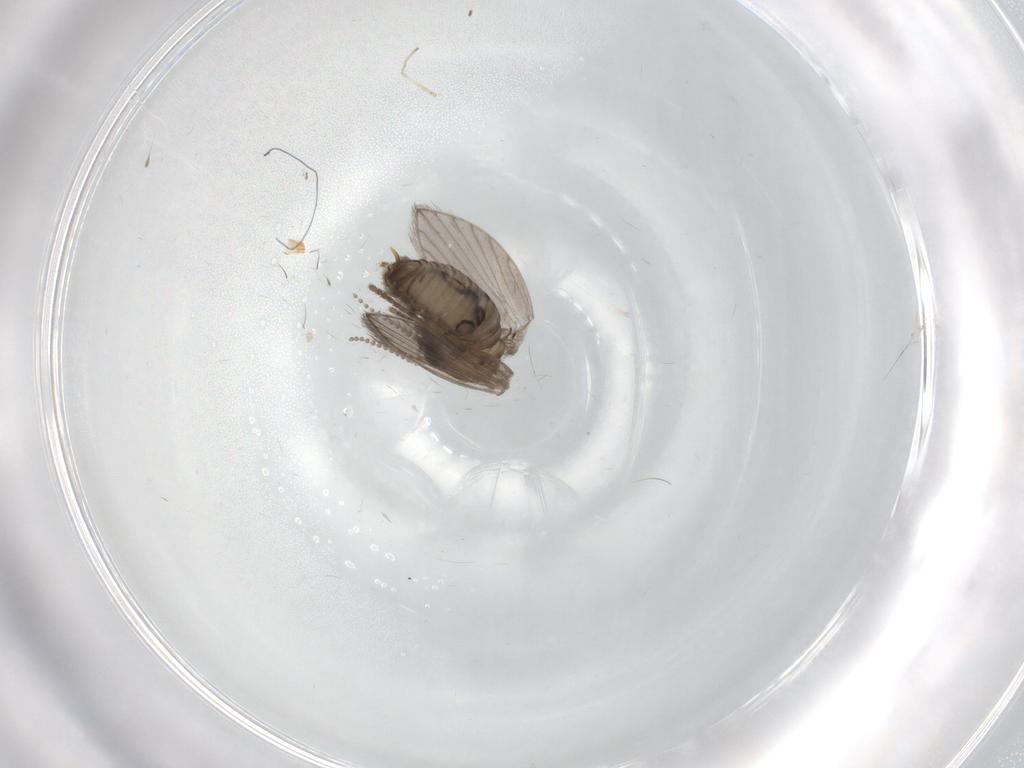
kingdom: Animalia
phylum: Arthropoda
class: Insecta
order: Diptera
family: Psychodidae
